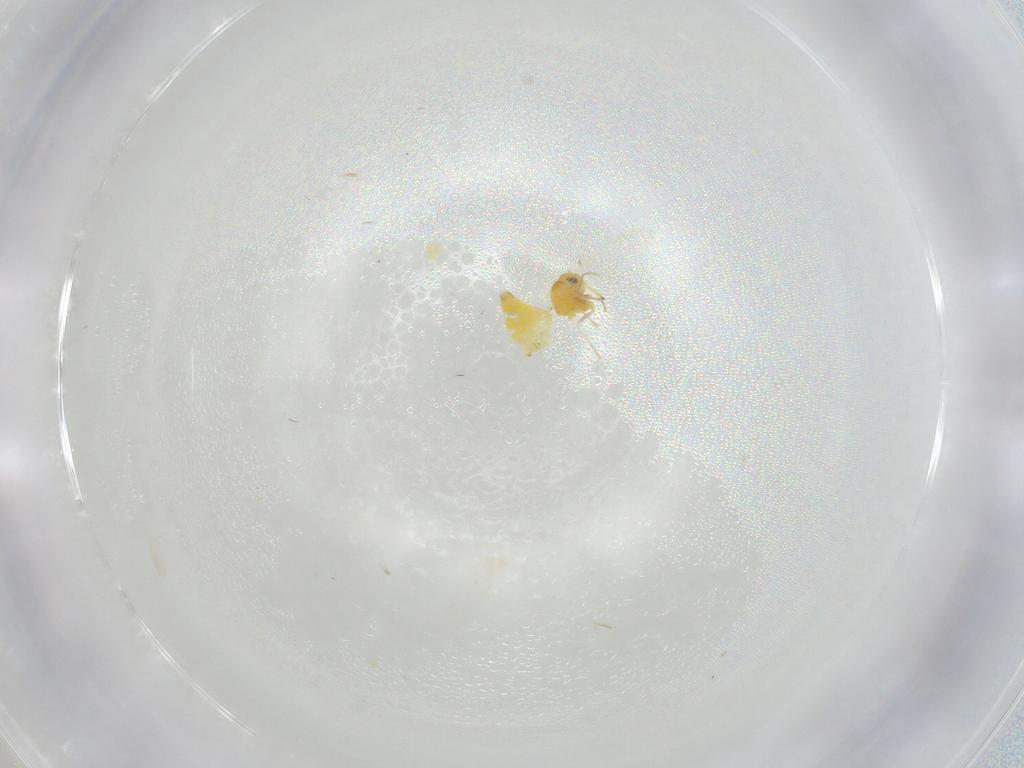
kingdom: Animalia
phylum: Arthropoda
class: Insecta
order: Hemiptera
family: Aleyrodidae
